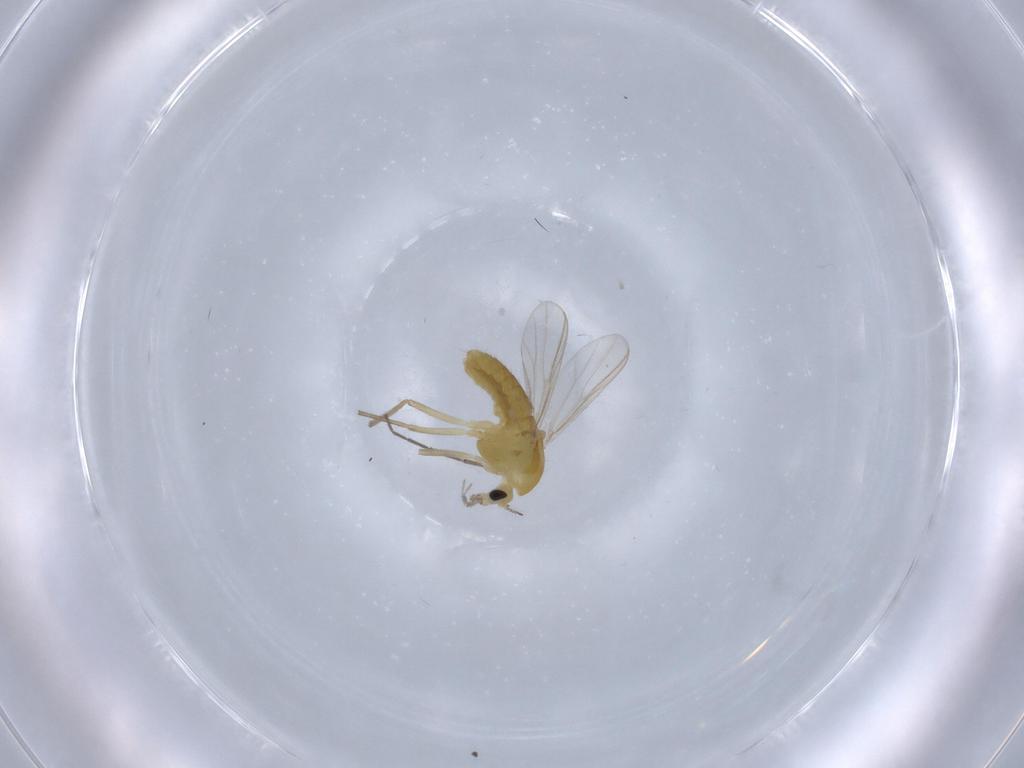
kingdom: Animalia
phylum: Arthropoda
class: Insecta
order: Diptera
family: Chironomidae
